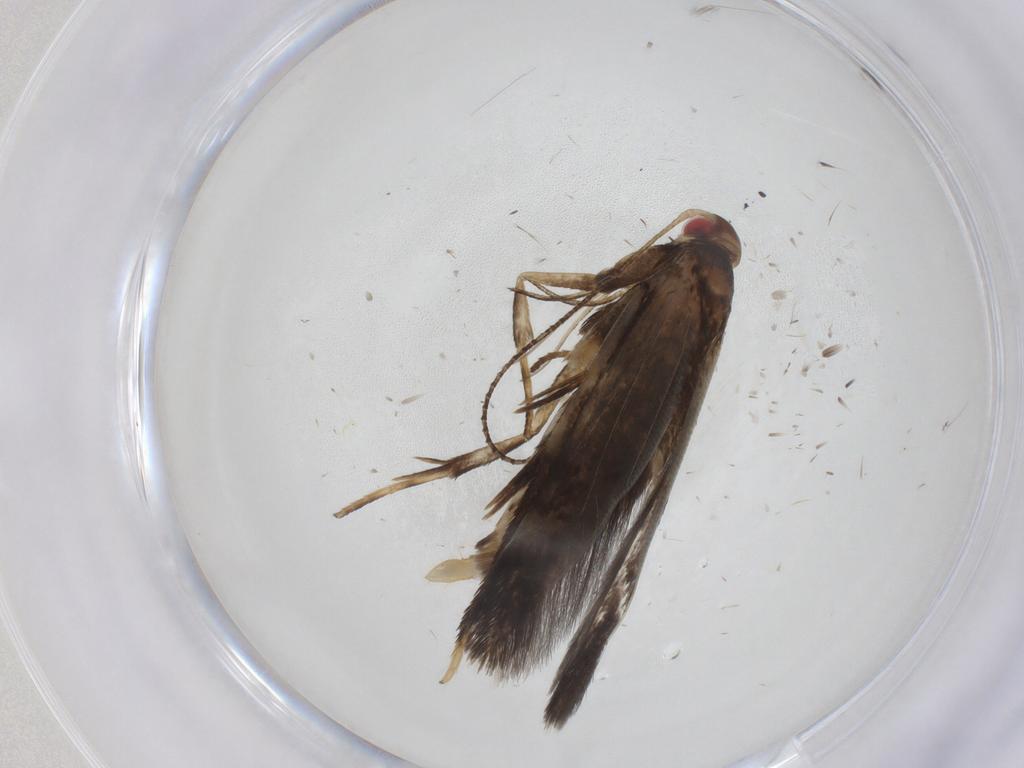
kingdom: Animalia
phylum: Arthropoda
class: Insecta
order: Lepidoptera
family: Gelechiidae
